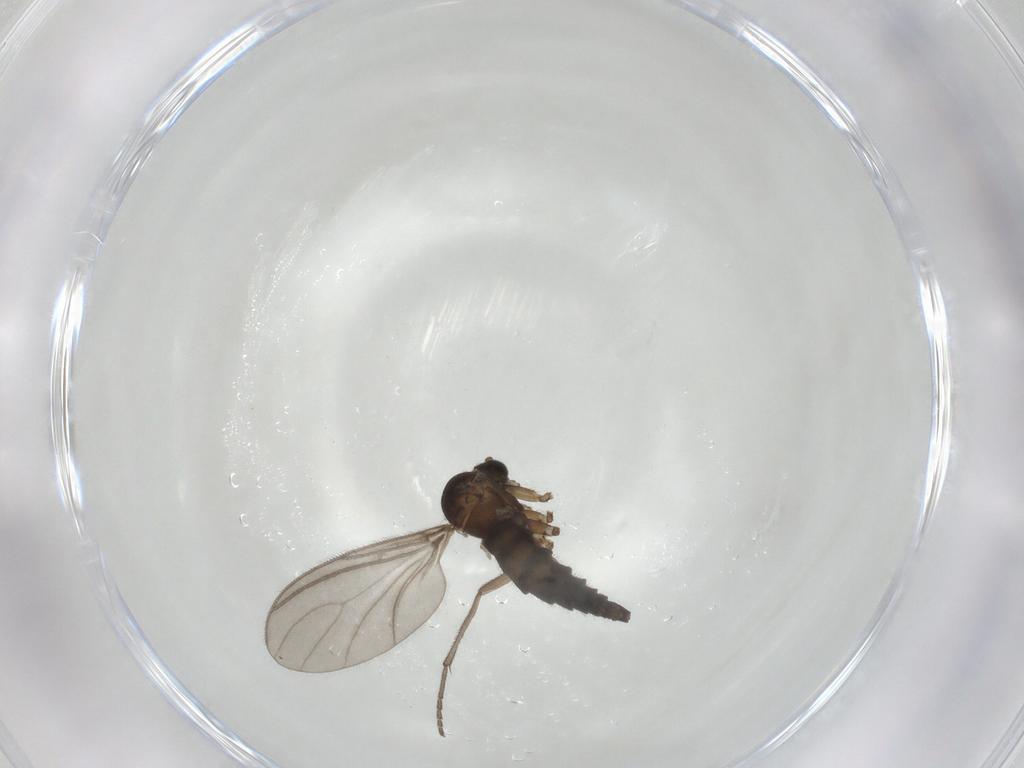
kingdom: Animalia
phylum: Arthropoda
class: Insecta
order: Diptera
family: Sciaridae
